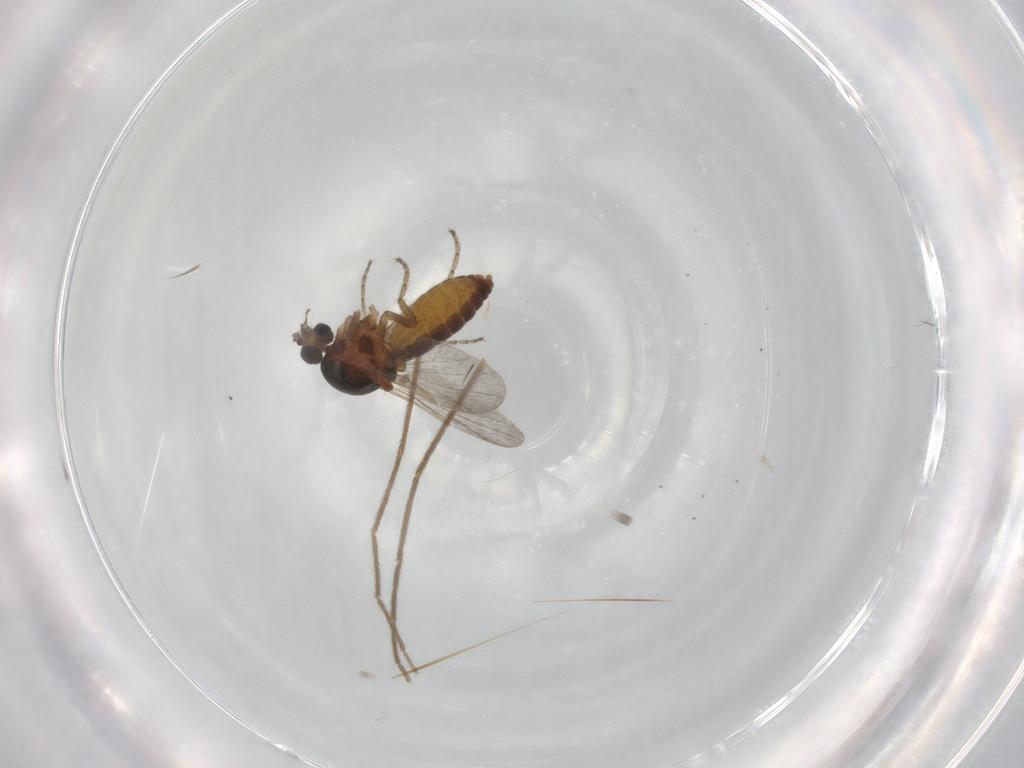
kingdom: Animalia
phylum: Arthropoda
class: Insecta
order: Diptera
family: Ceratopogonidae
